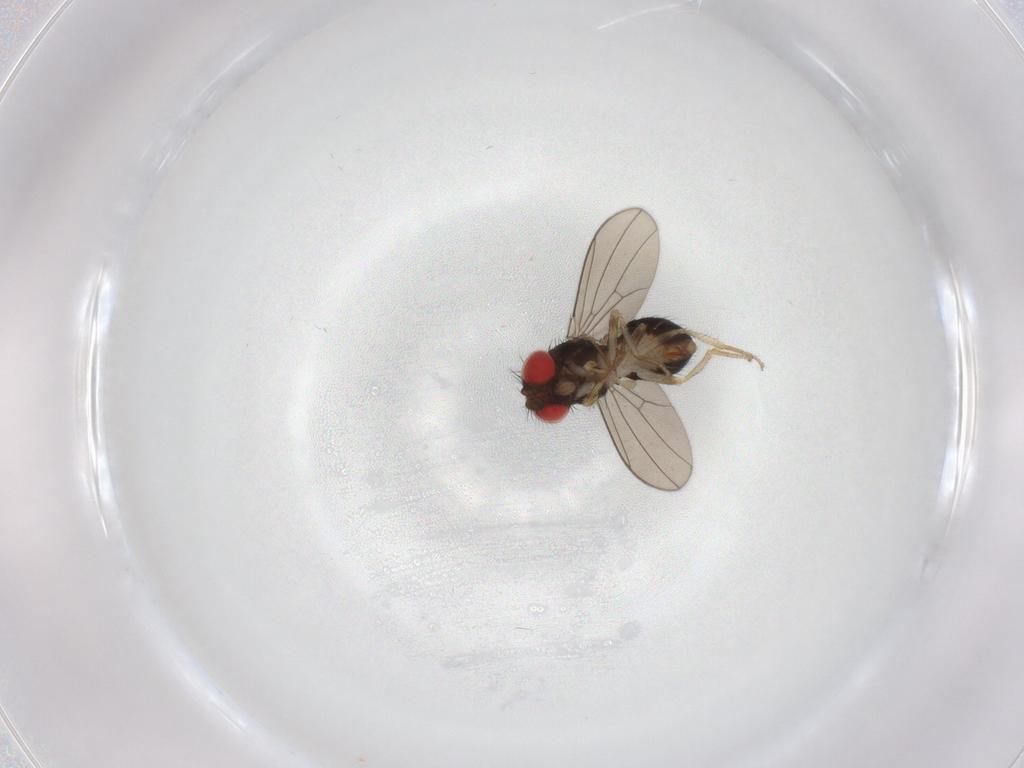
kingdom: Animalia
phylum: Arthropoda
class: Insecta
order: Diptera
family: Drosophilidae
